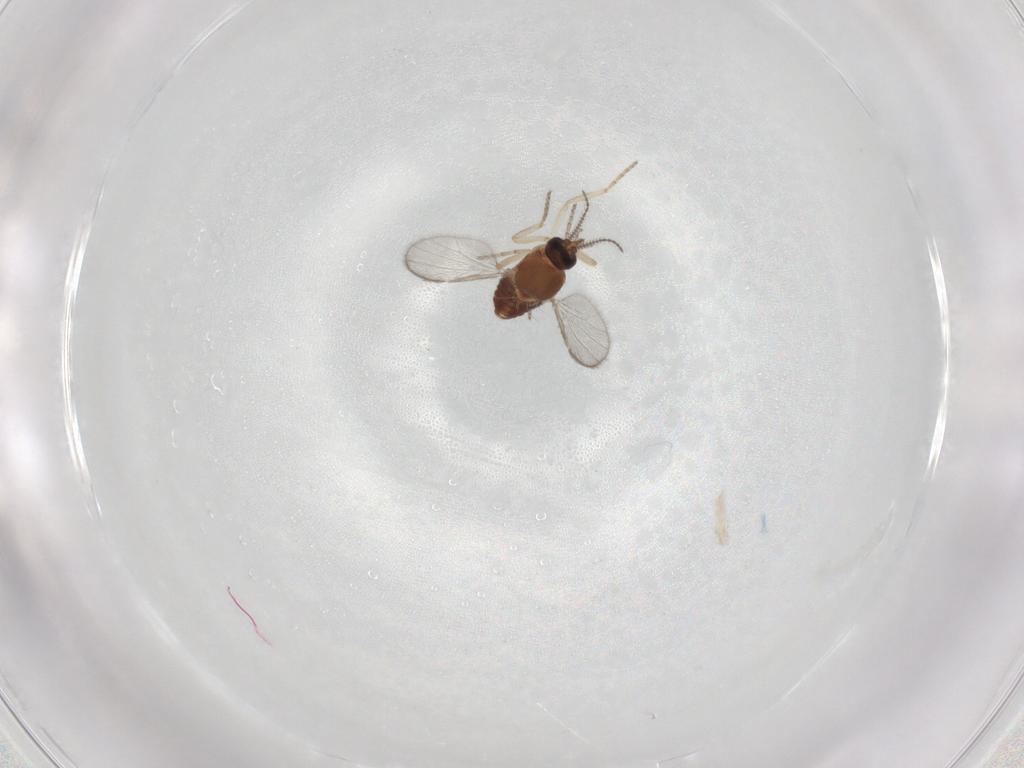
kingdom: Animalia
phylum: Arthropoda
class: Insecta
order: Diptera
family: Ceratopogonidae
